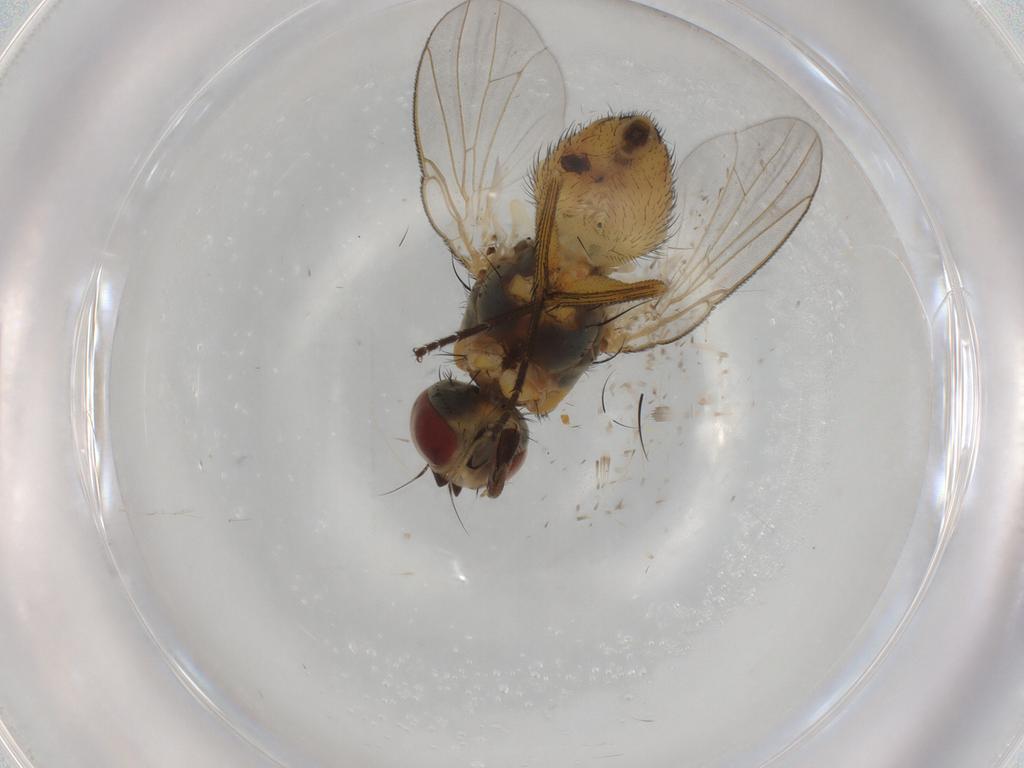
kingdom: Animalia
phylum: Arthropoda
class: Insecta
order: Diptera
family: Muscidae
